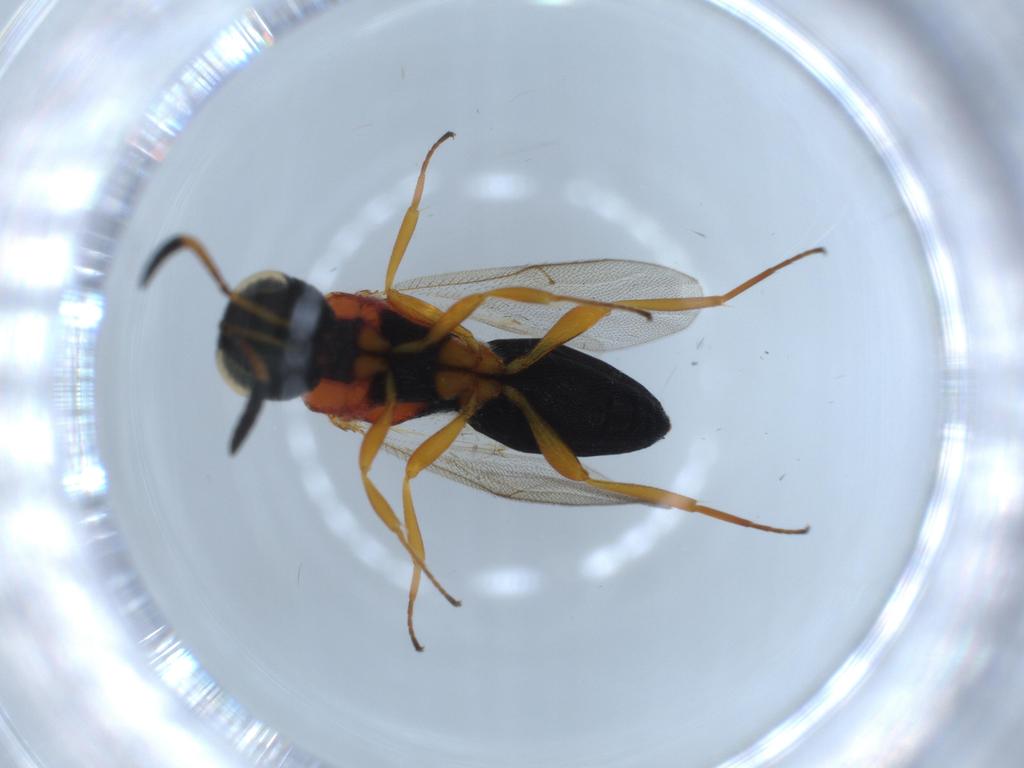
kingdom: Animalia
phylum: Arthropoda
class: Insecta
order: Hymenoptera
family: Scelionidae
